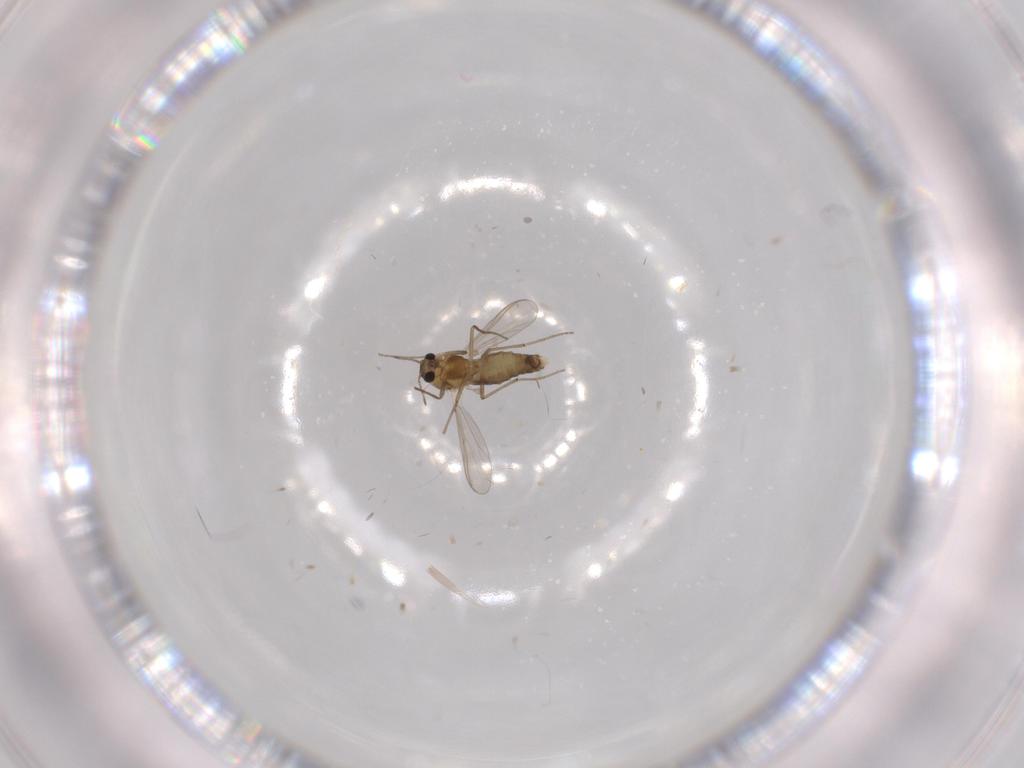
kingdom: Animalia
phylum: Arthropoda
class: Insecta
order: Diptera
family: Chironomidae
